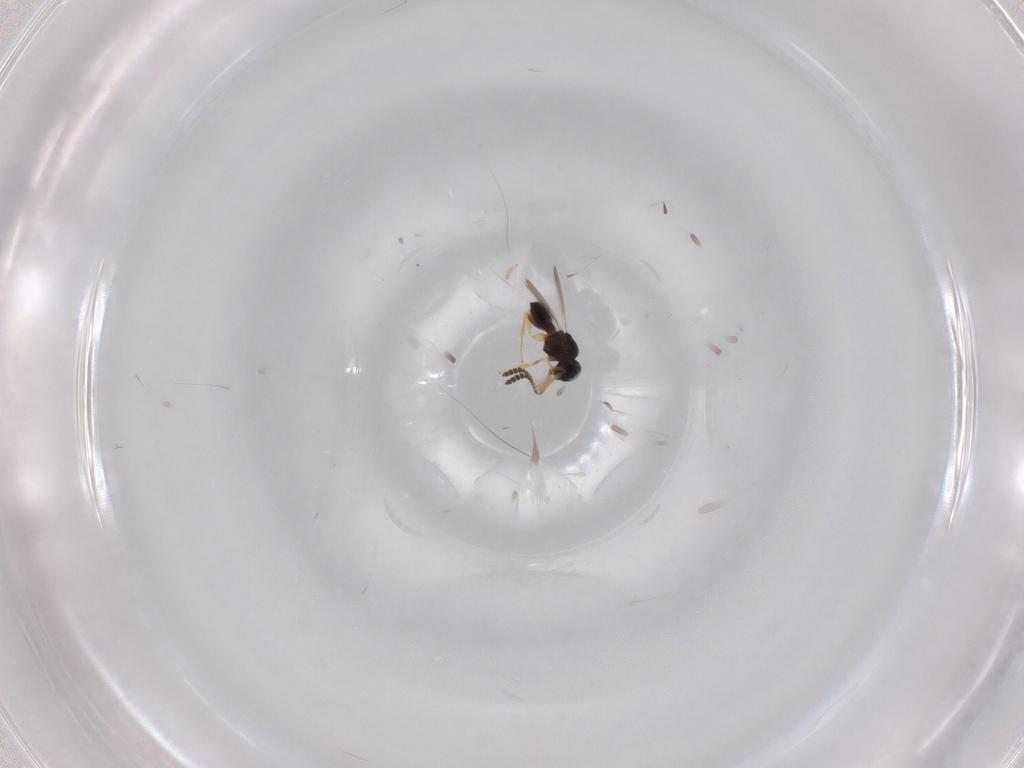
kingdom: Animalia
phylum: Arthropoda
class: Insecta
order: Hymenoptera
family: Scelionidae
